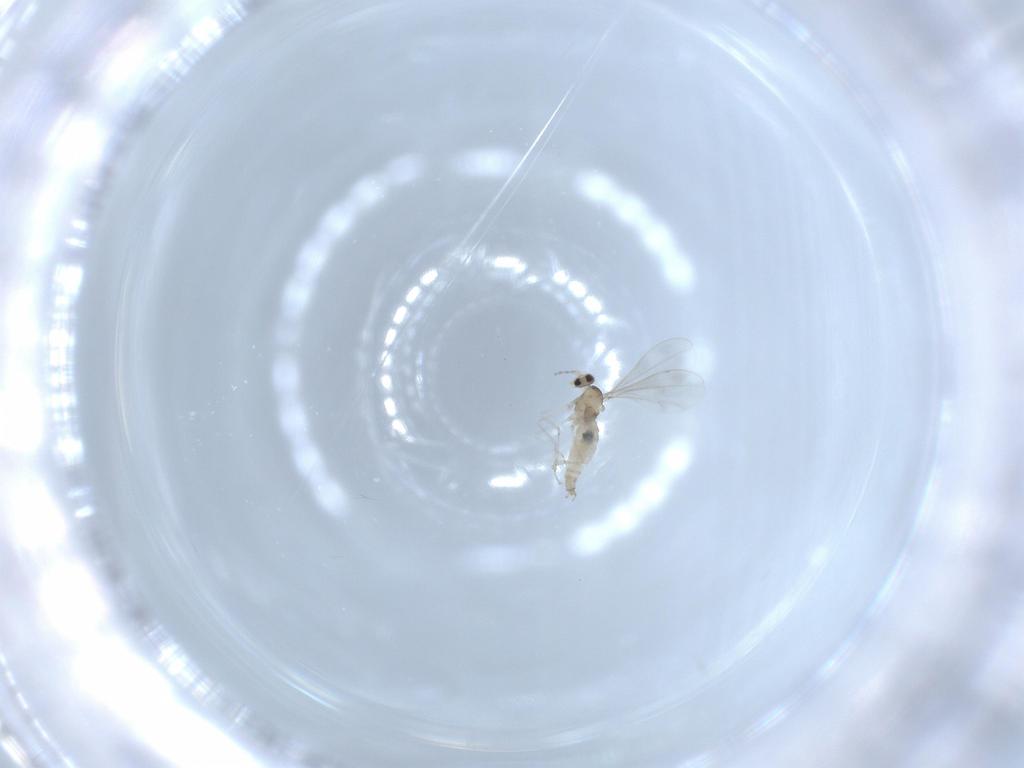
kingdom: Animalia
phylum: Arthropoda
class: Insecta
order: Diptera
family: Cecidomyiidae
